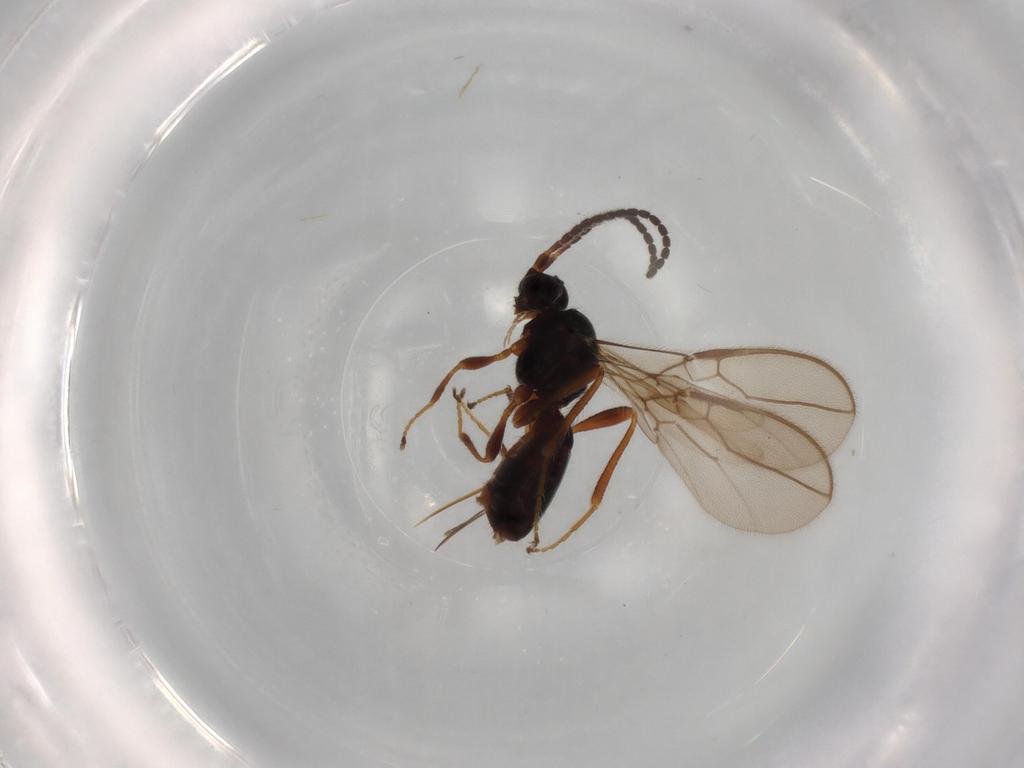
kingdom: Animalia
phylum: Arthropoda
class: Insecta
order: Hymenoptera
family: Braconidae
